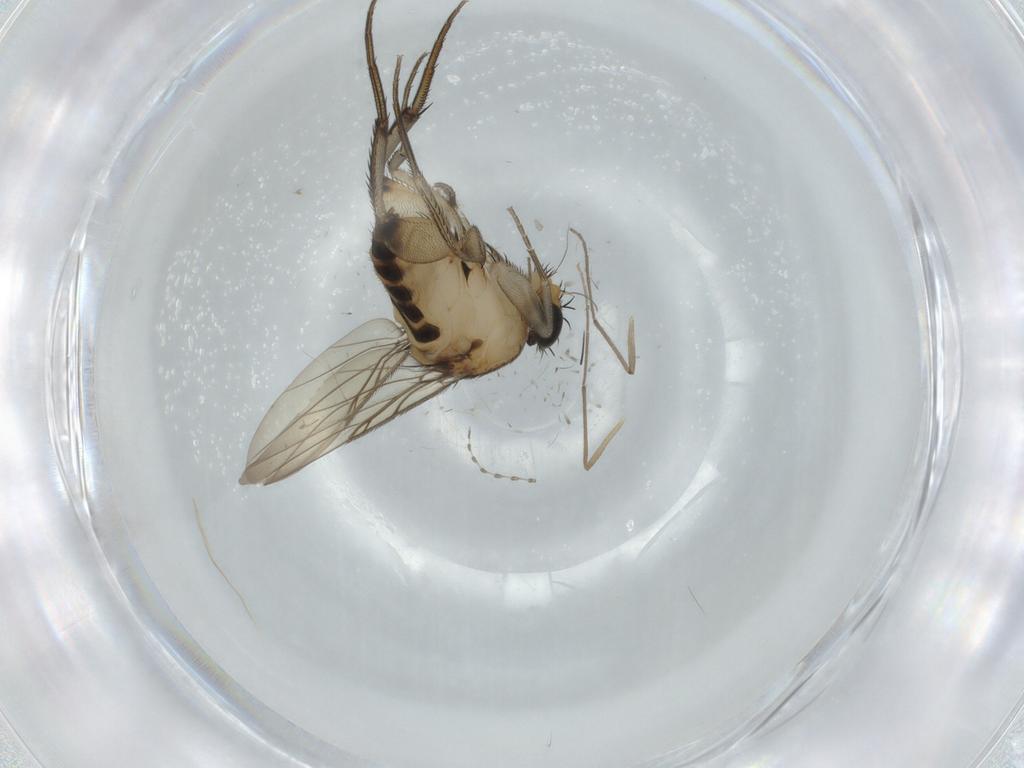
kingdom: Animalia
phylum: Arthropoda
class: Insecta
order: Diptera
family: Chironomidae
